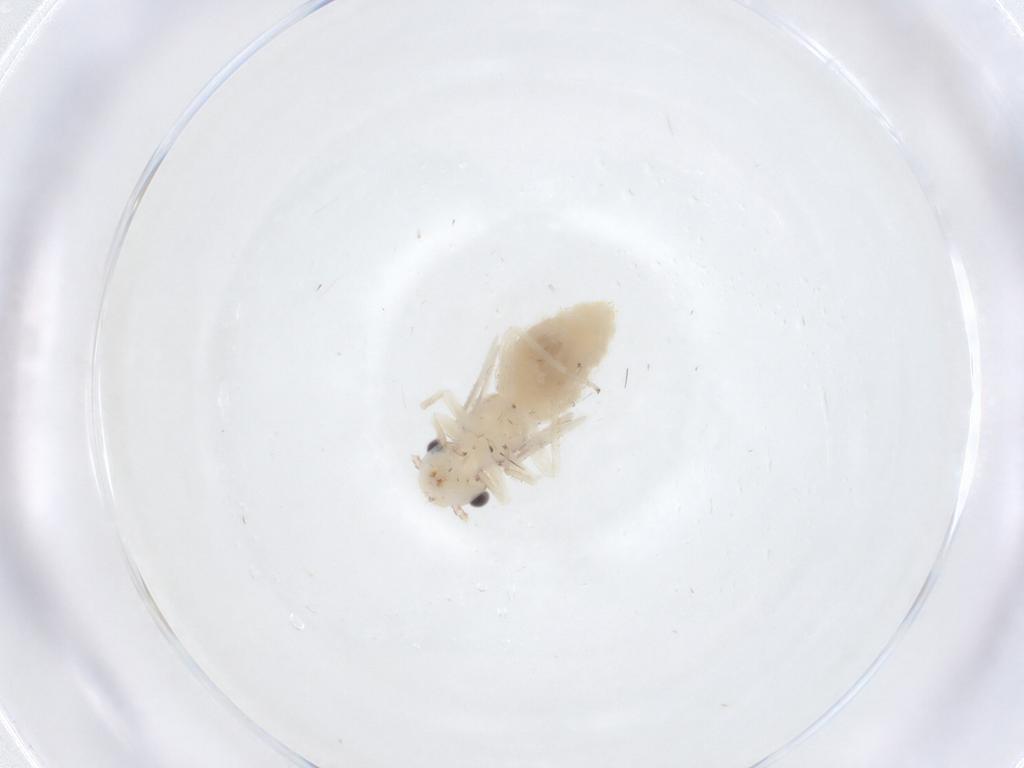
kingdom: Animalia
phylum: Arthropoda
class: Insecta
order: Psocodea
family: Pseudocaeciliidae
